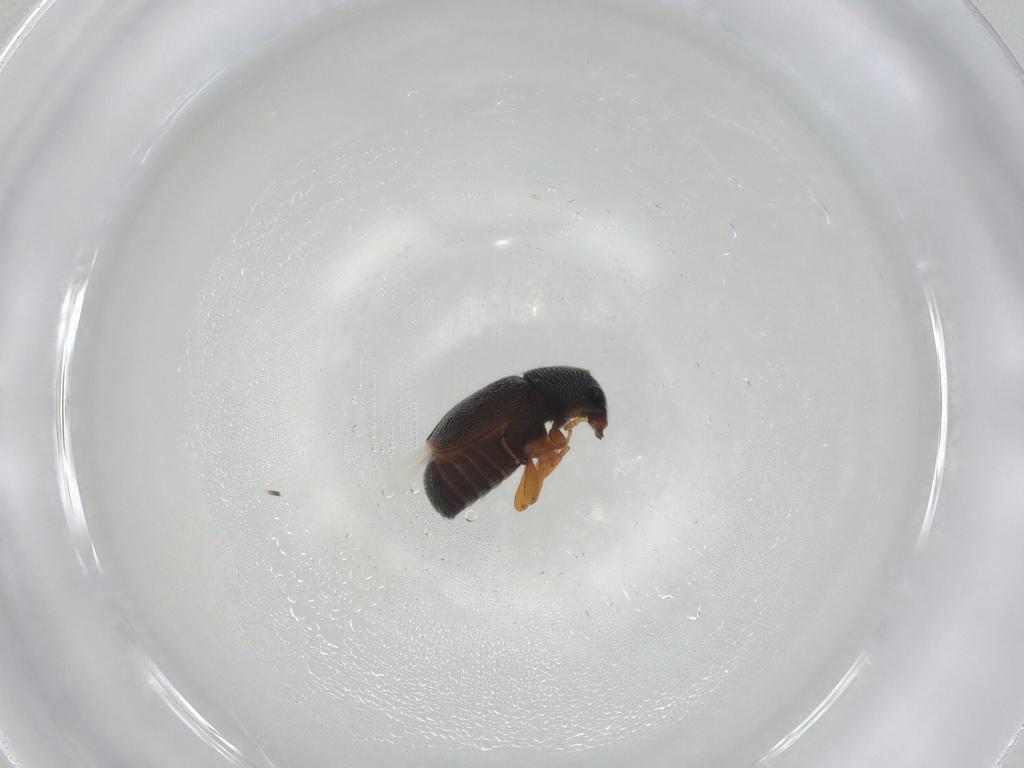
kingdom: Animalia
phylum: Arthropoda
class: Insecta
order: Coleoptera
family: Anthribidae
